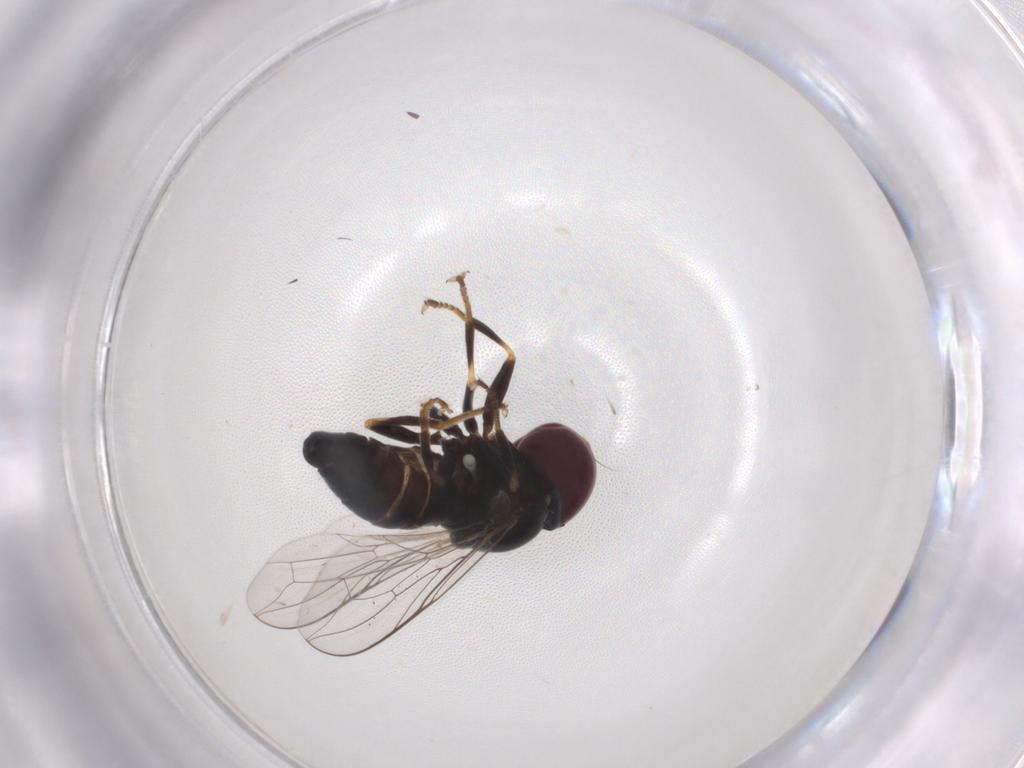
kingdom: Animalia
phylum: Arthropoda
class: Insecta
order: Diptera
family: Pipunculidae
